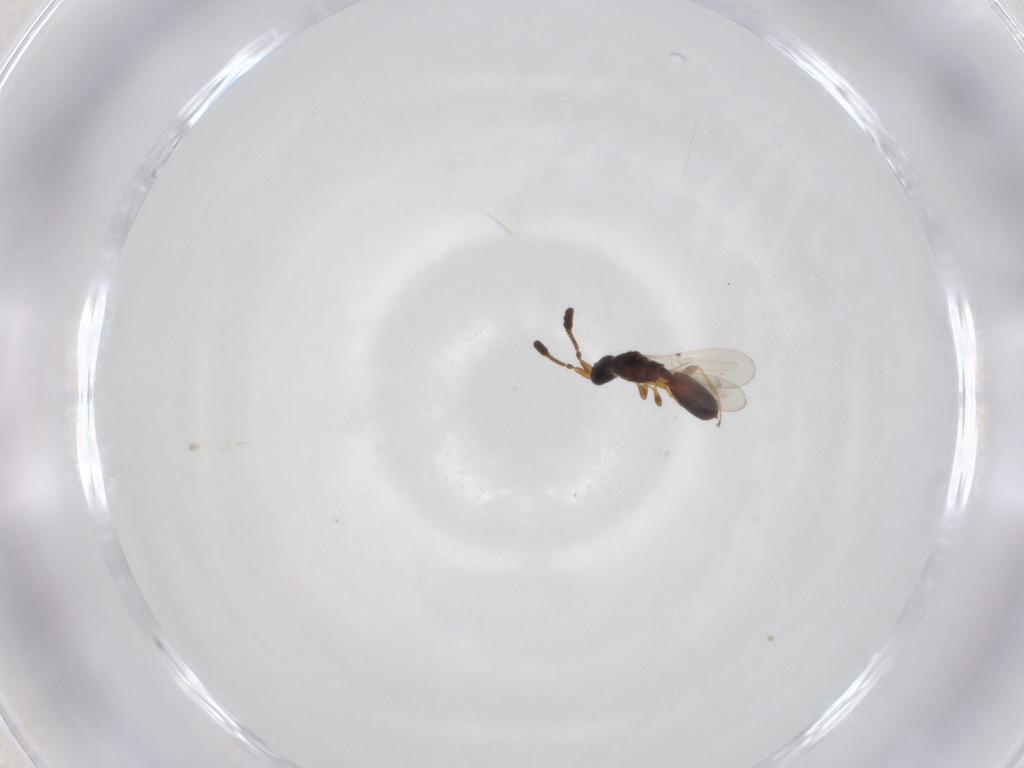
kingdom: Animalia
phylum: Arthropoda
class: Insecta
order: Hymenoptera
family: Diapriidae
